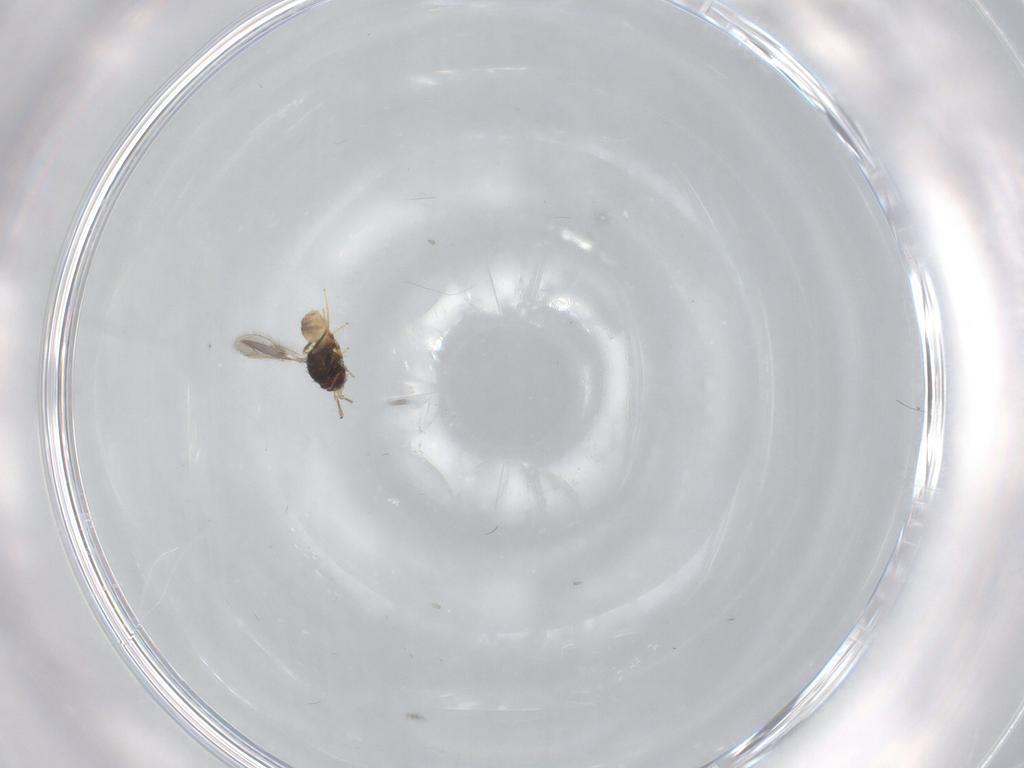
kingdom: Animalia
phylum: Arthropoda
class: Insecta
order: Hymenoptera
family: Mymaridae
